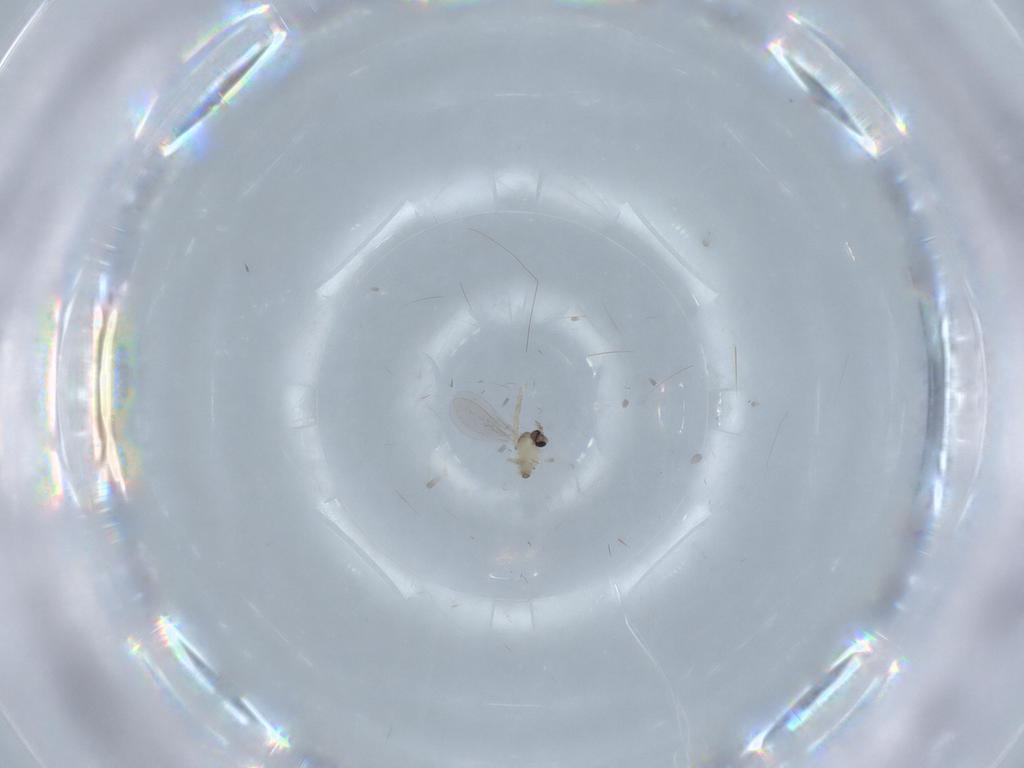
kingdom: Animalia
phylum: Arthropoda
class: Insecta
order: Diptera
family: Cecidomyiidae
